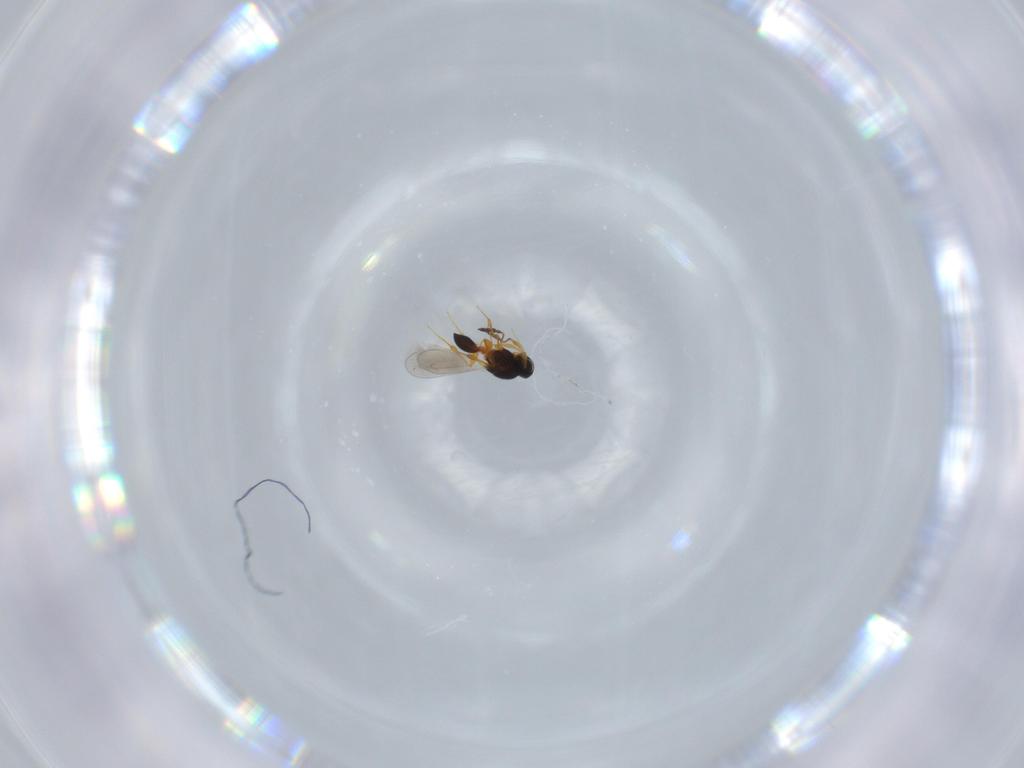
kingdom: Animalia
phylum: Arthropoda
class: Insecta
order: Hymenoptera
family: Platygastridae
